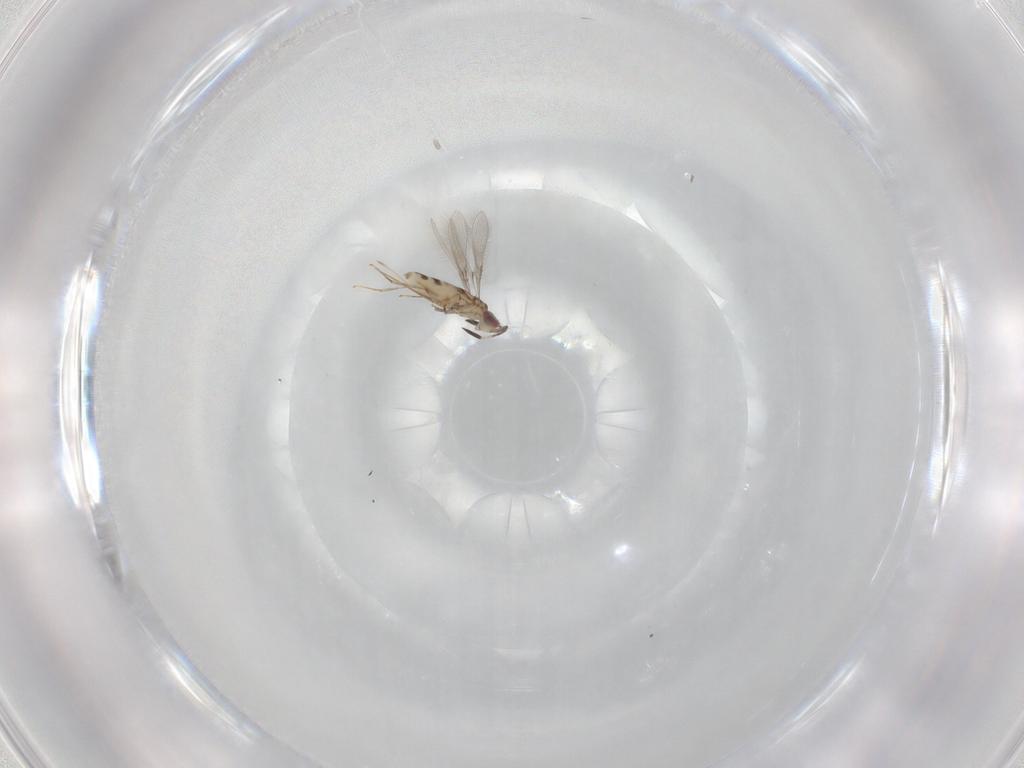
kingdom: Animalia
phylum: Arthropoda
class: Insecta
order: Hymenoptera
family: Mymaridae
